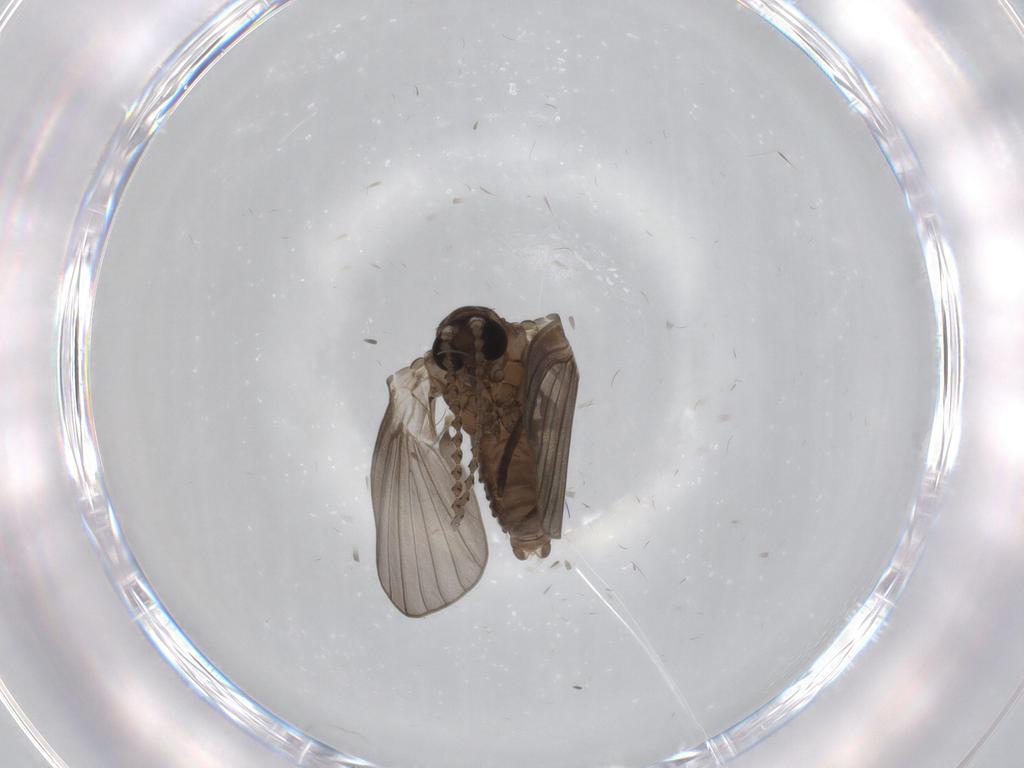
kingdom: Animalia
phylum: Arthropoda
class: Insecta
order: Diptera
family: Psychodidae
